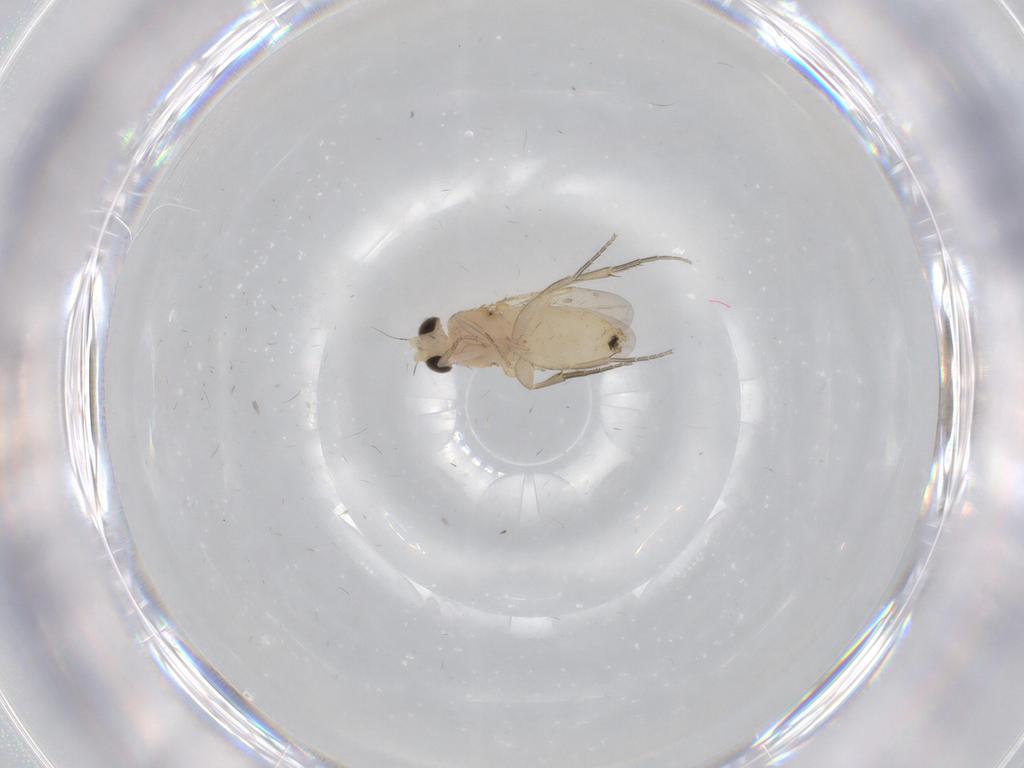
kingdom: Animalia
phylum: Arthropoda
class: Insecta
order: Diptera
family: Phoridae
